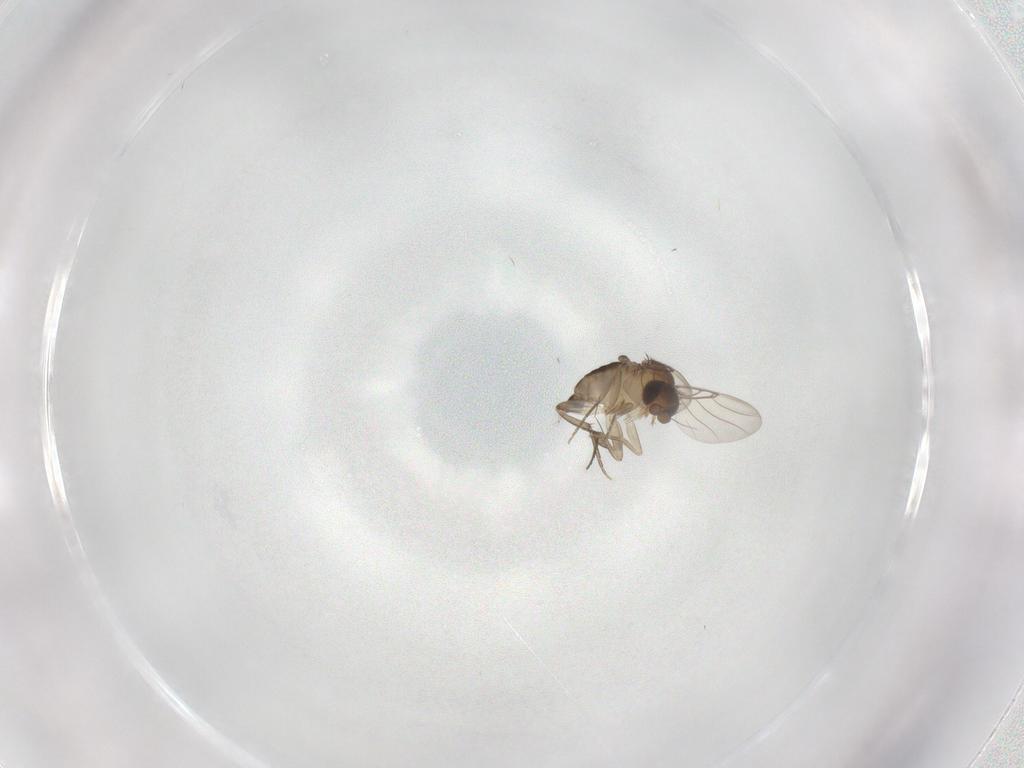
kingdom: Animalia
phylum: Arthropoda
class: Insecta
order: Diptera
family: Phoridae
